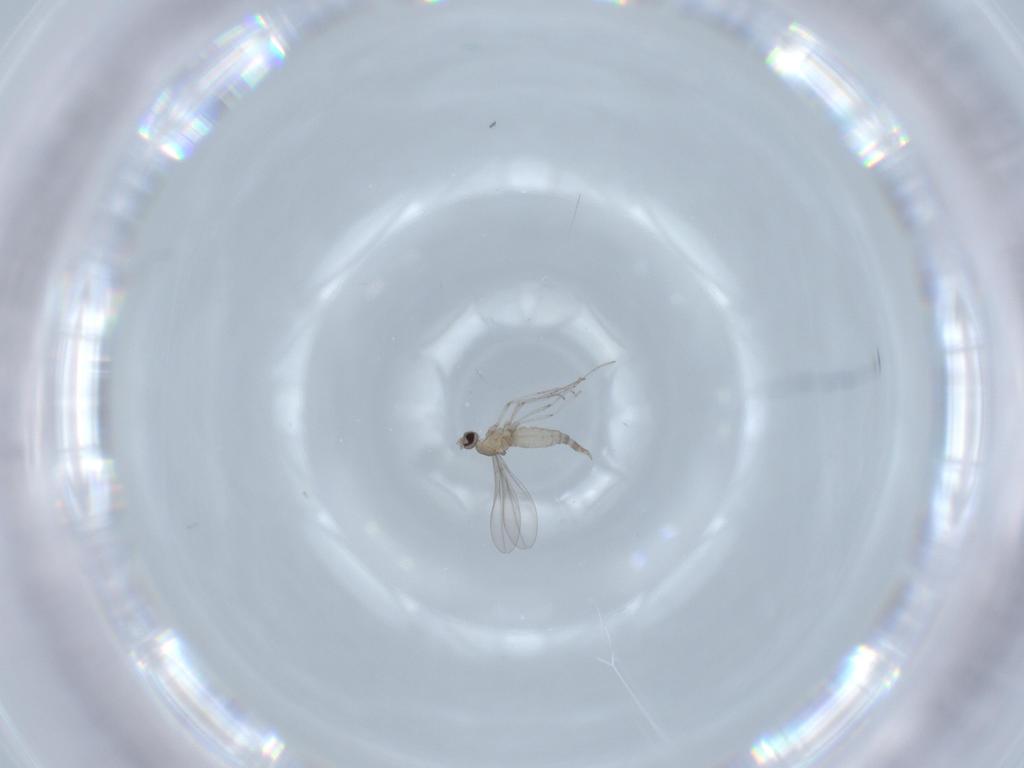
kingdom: Animalia
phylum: Arthropoda
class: Insecta
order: Diptera
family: Cecidomyiidae
